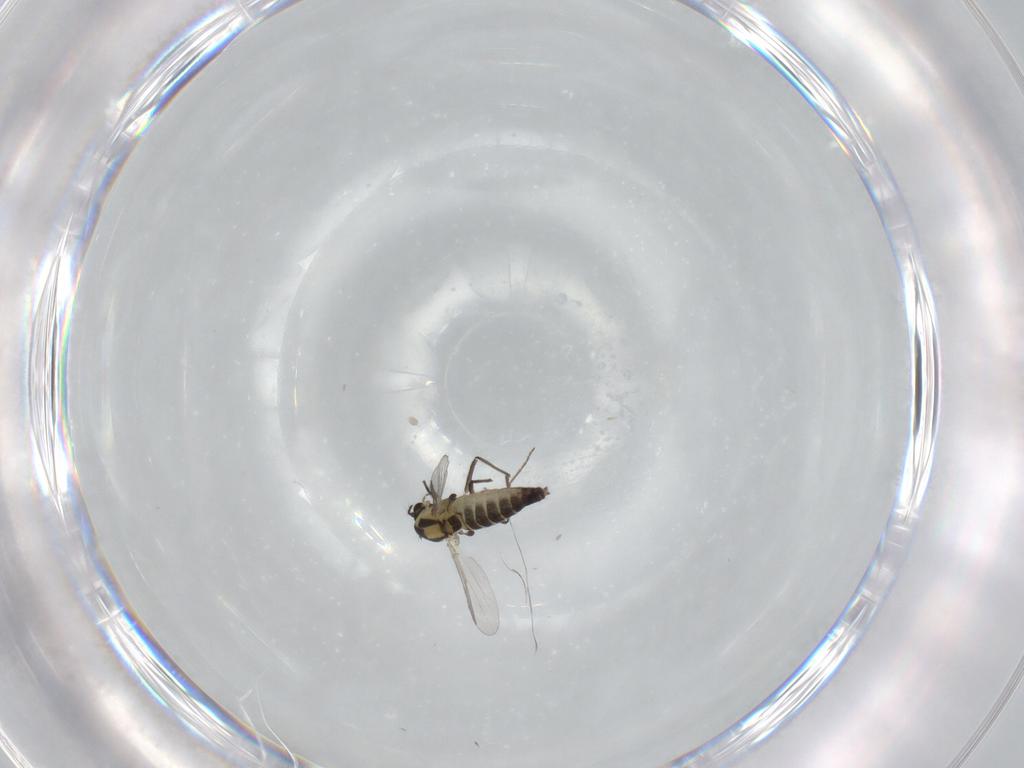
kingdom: Animalia
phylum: Arthropoda
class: Insecta
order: Diptera
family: Chironomidae
